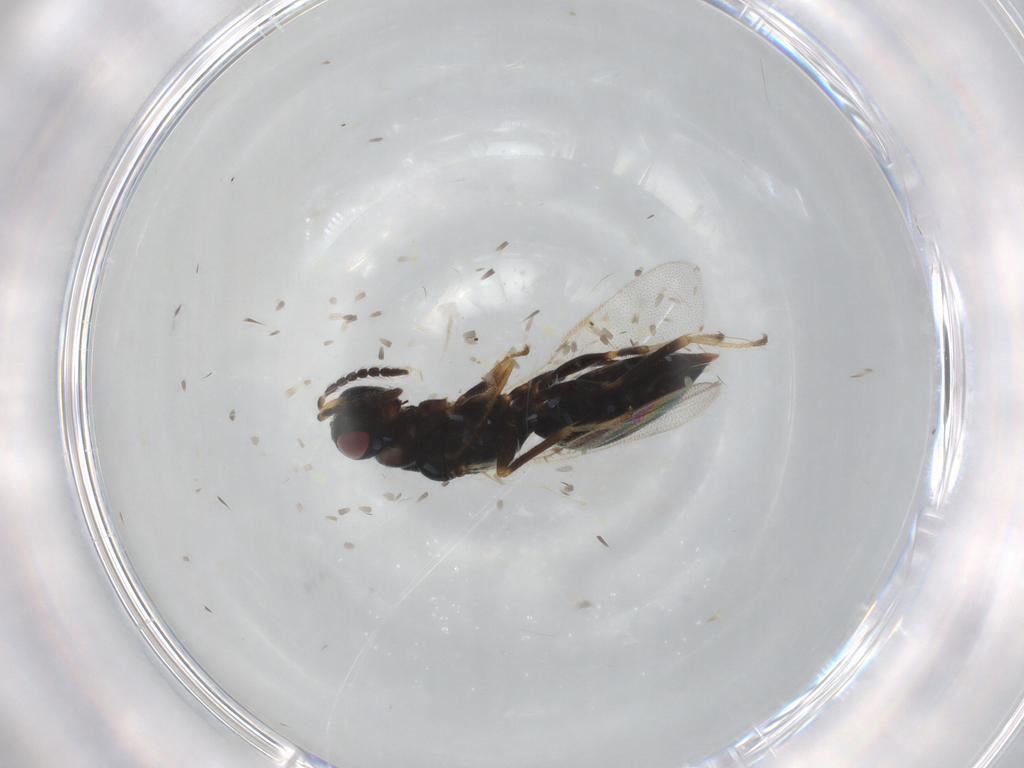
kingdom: Animalia
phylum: Arthropoda
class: Insecta
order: Hymenoptera
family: Eurytomidae
